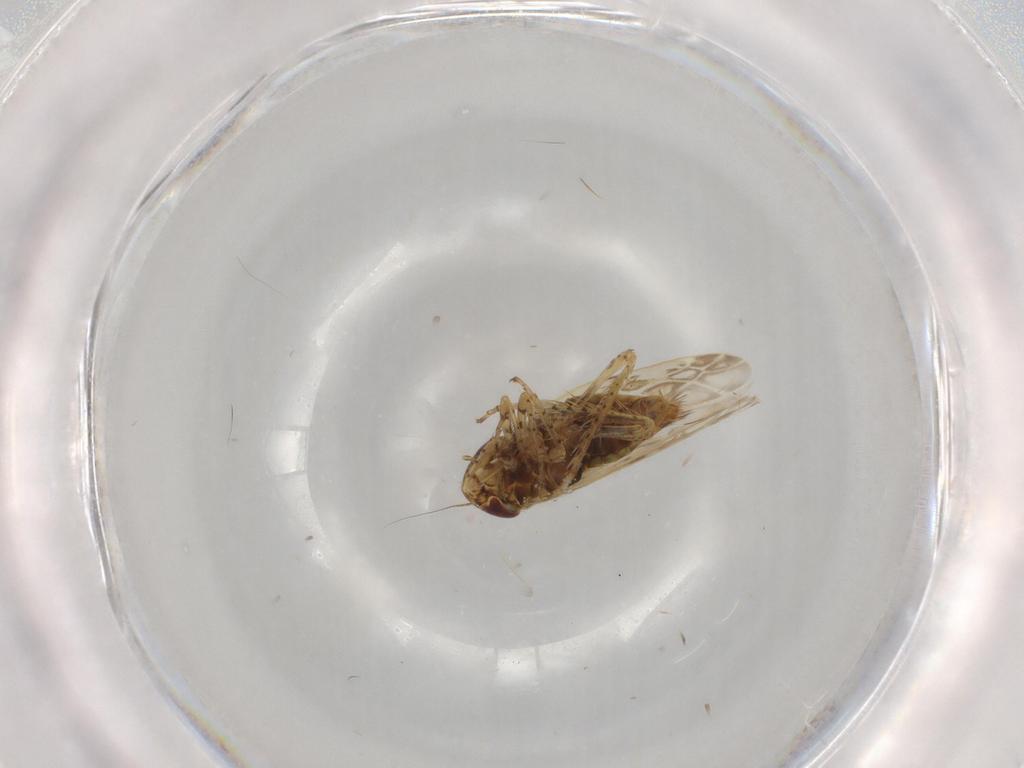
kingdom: Animalia
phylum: Arthropoda
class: Insecta
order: Hemiptera
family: Cicadellidae
